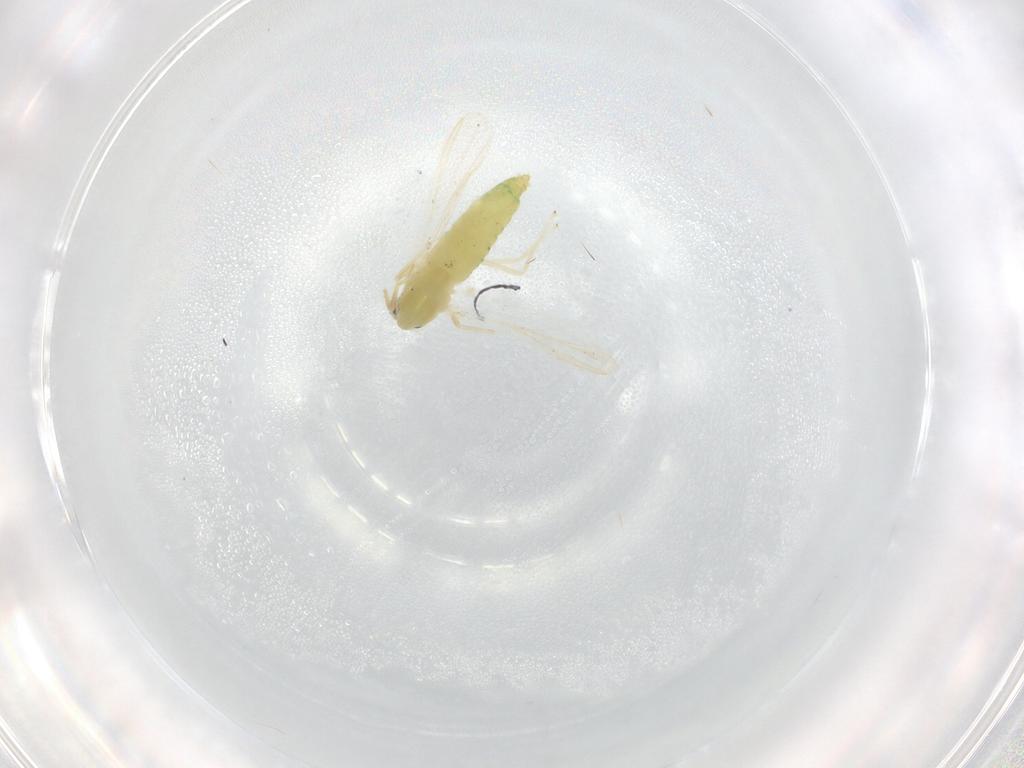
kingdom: Animalia
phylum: Arthropoda
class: Insecta
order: Diptera
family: Chironomidae
